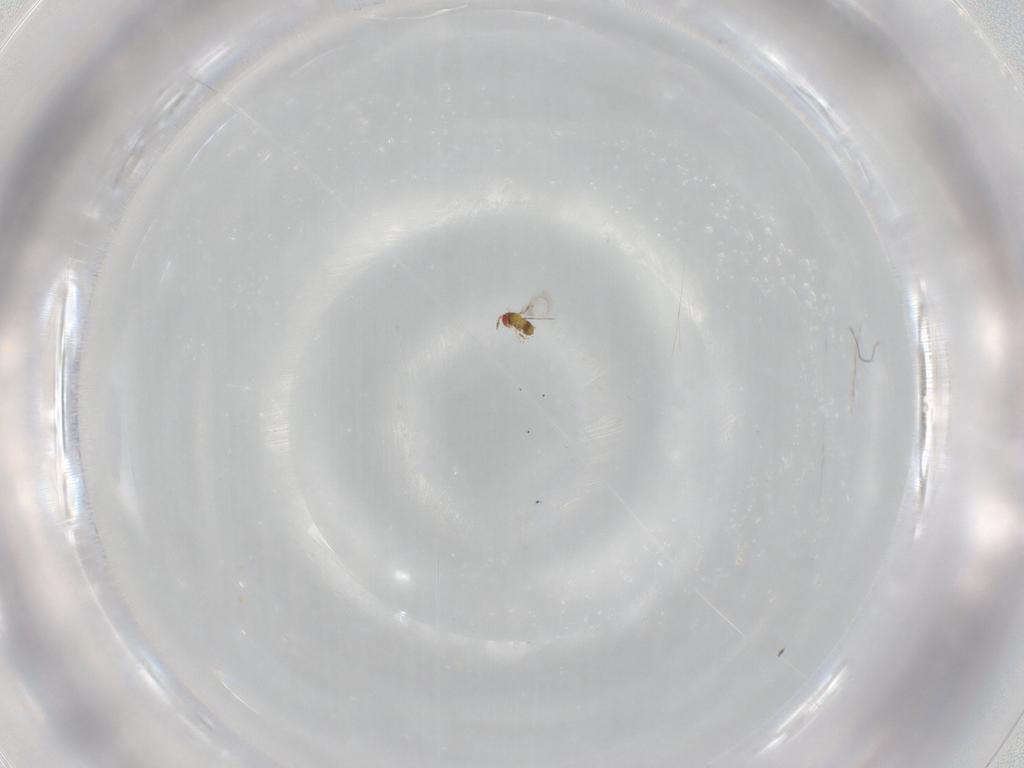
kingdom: Animalia
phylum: Arthropoda
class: Insecta
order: Hymenoptera
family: Trichogrammatidae
